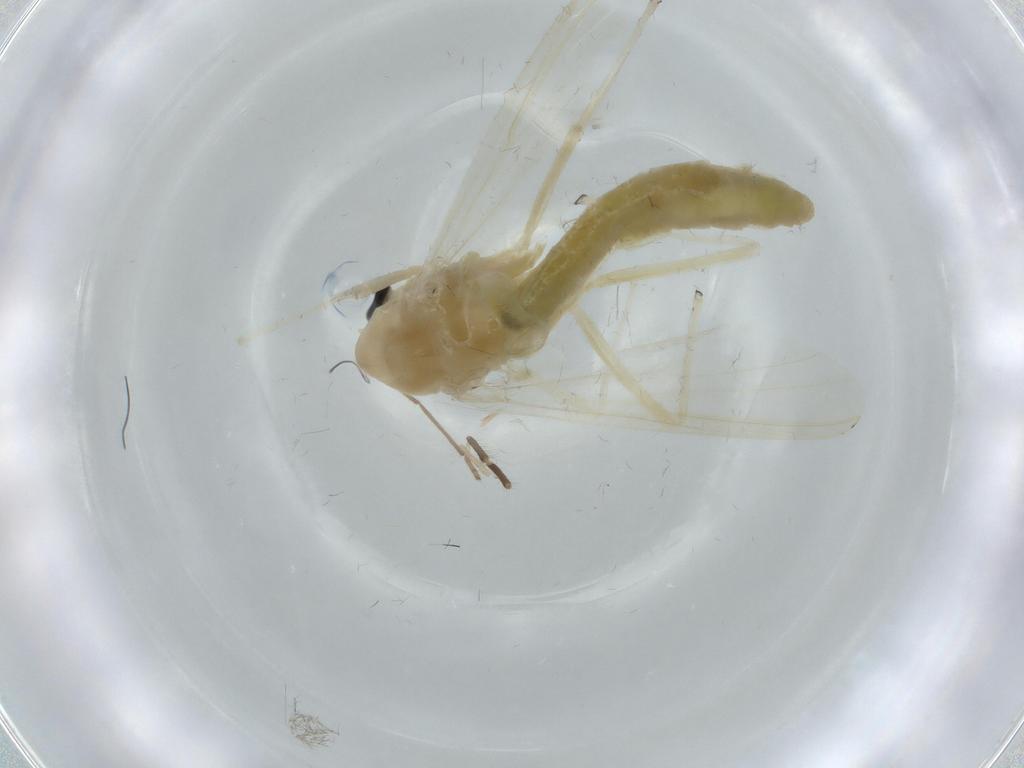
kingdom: Animalia
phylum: Arthropoda
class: Insecta
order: Diptera
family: Chironomidae
